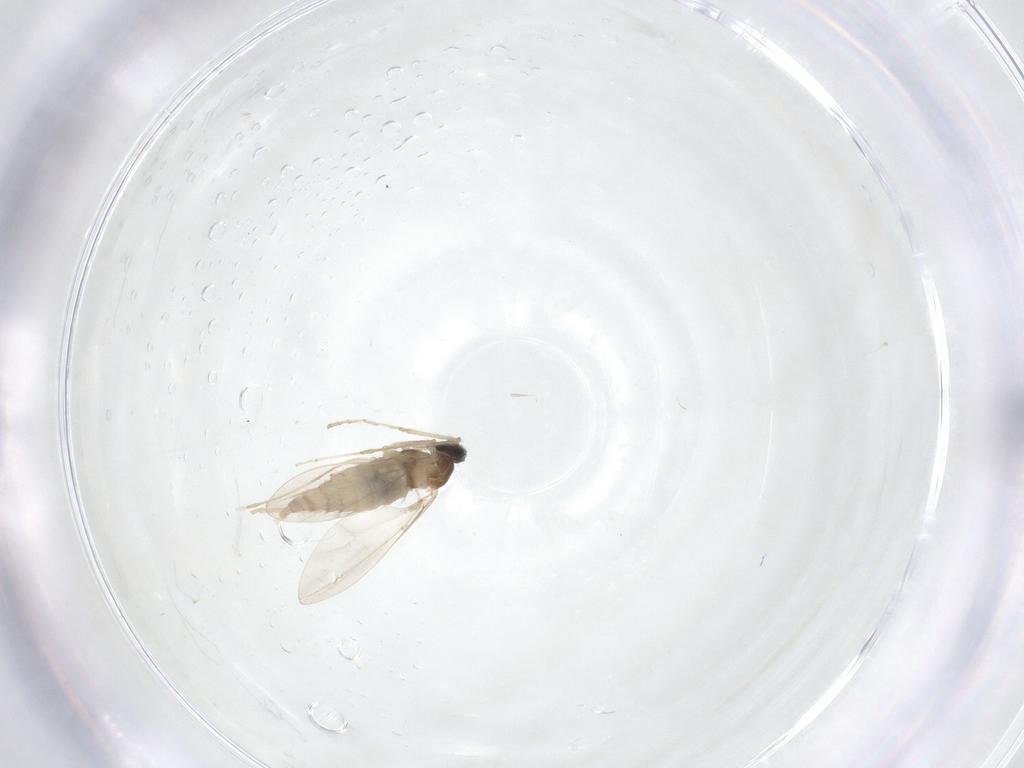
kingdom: Animalia
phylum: Arthropoda
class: Insecta
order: Diptera
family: Cecidomyiidae
